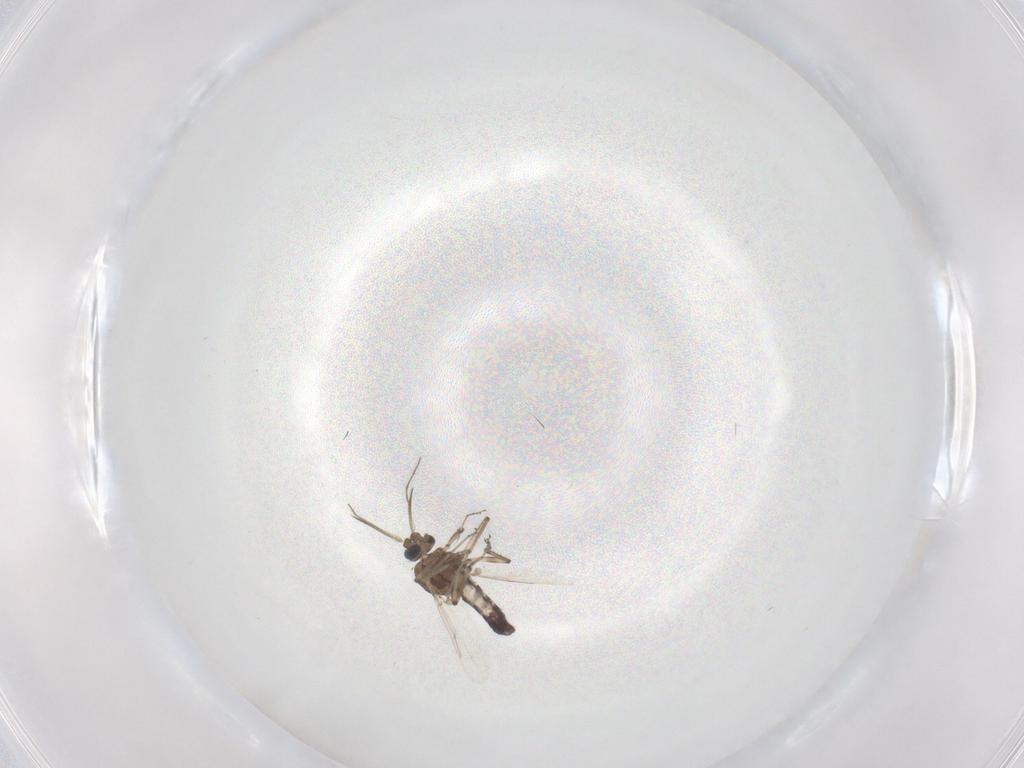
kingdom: Animalia
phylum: Arthropoda
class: Insecta
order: Diptera
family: Ceratopogonidae
